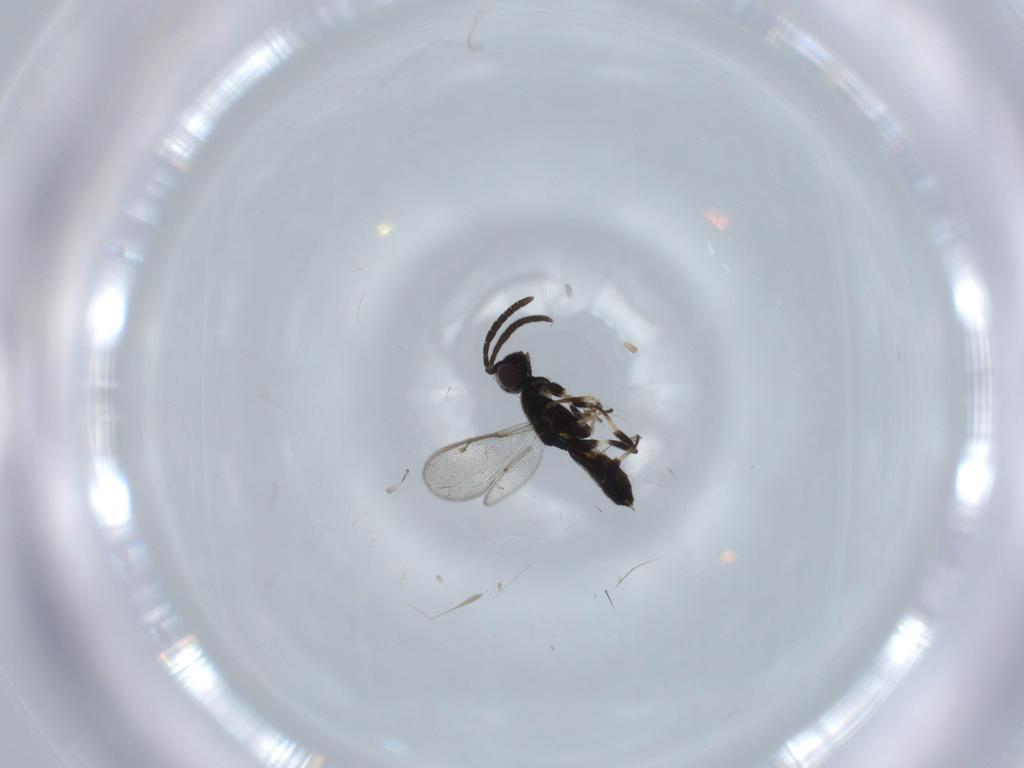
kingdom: Animalia
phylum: Arthropoda
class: Insecta
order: Hymenoptera
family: Eupelmidae
